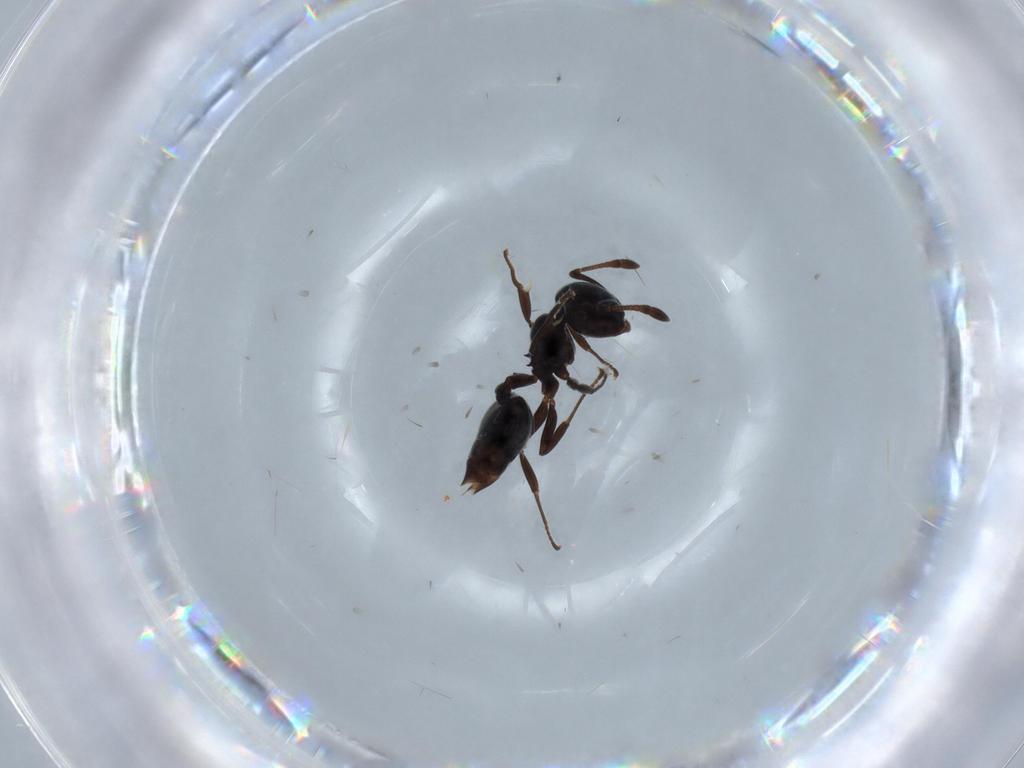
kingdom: Animalia
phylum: Arthropoda
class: Insecta
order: Hymenoptera
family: Formicidae
